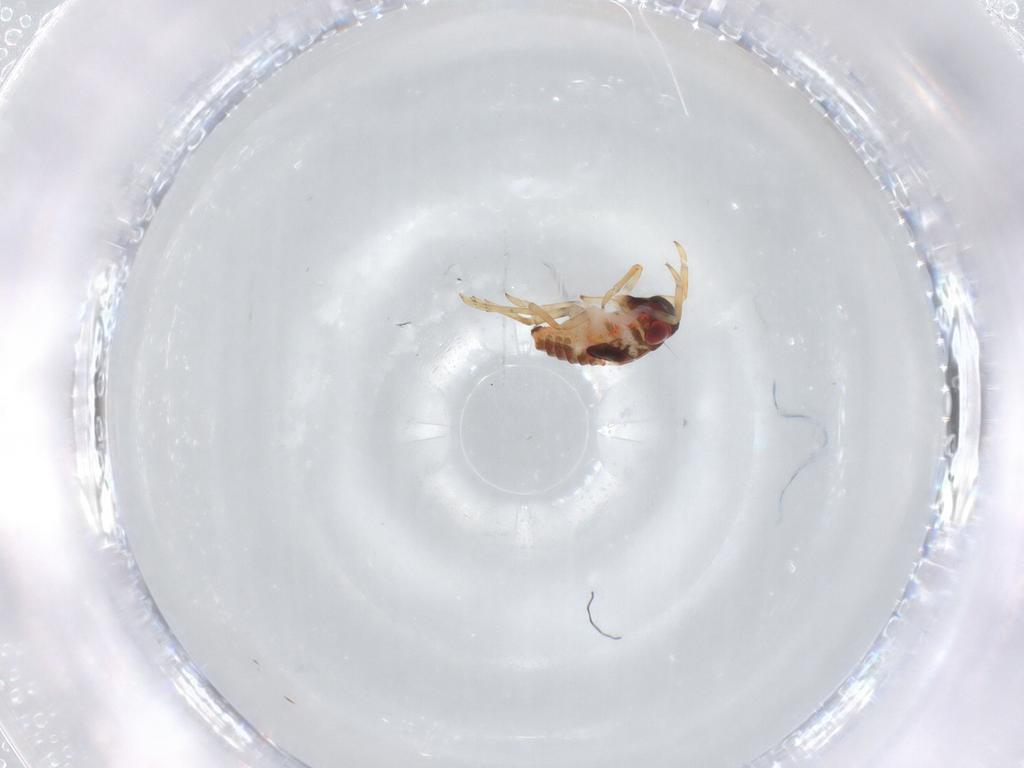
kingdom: Animalia
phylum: Arthropoda
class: Insecta
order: Hemiptera
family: Issidae
